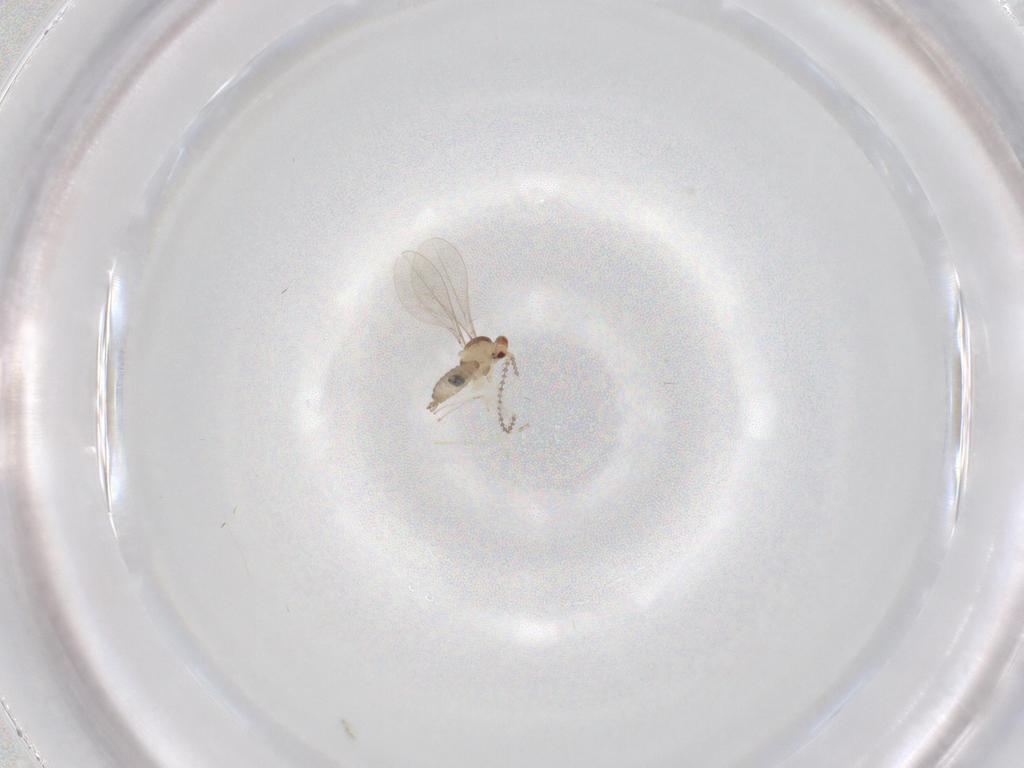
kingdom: Animalia
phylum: Arthropoda
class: Insecta
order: Diptera
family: Cecidomyiidae
